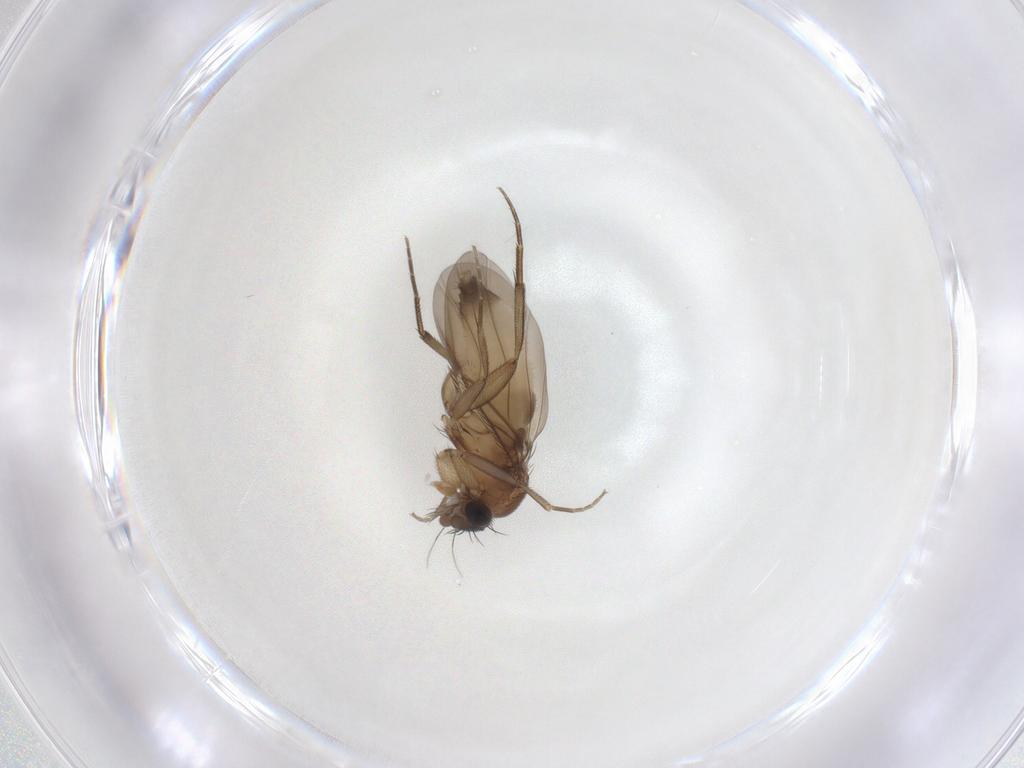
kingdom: Animalia
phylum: Arthropoda
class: Insecta
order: Diptera
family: Phoridae
